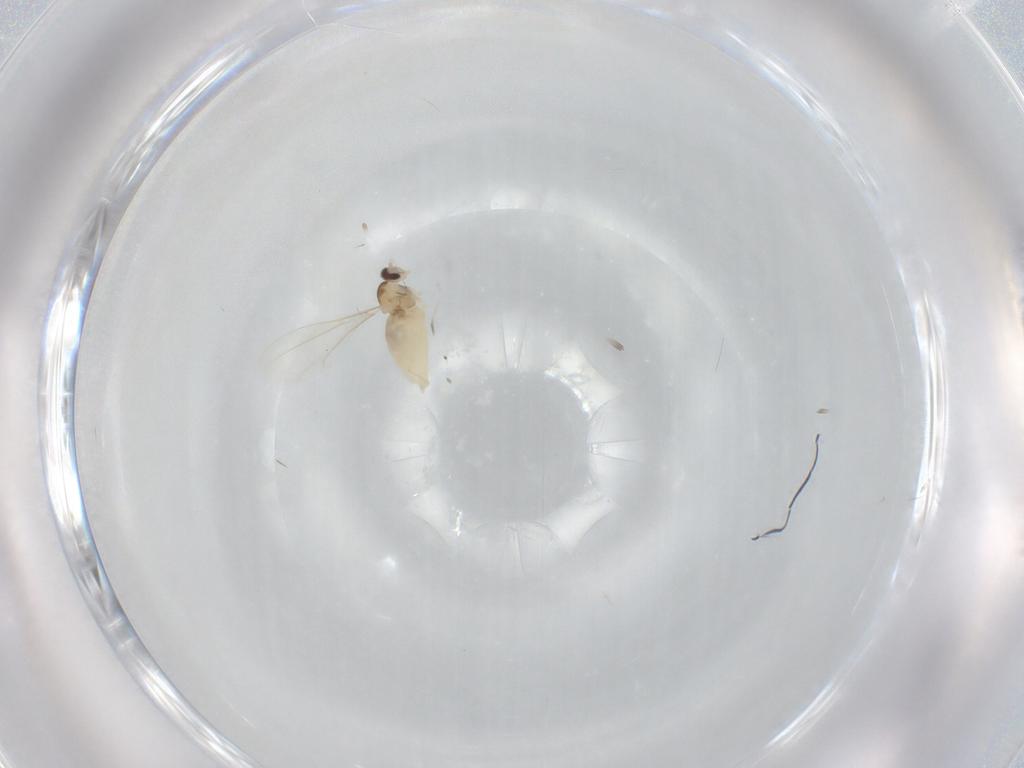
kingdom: Animalia
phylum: Arthropoda
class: Insecta
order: Diptera
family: Cecidomyiidae
